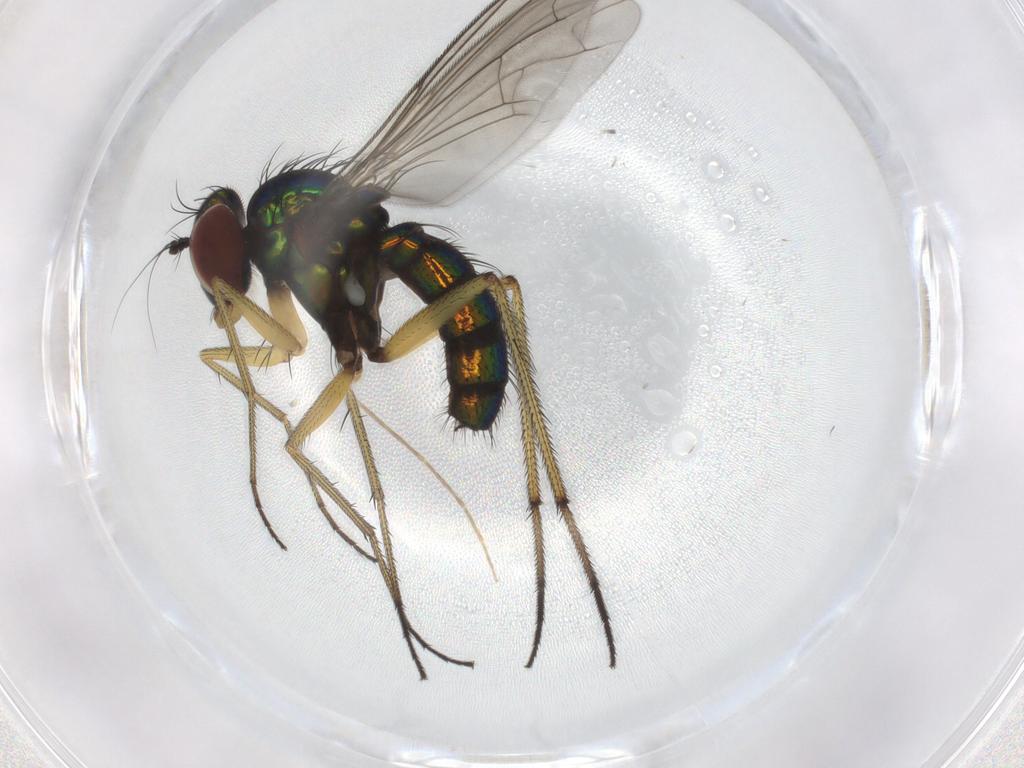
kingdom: Animalia
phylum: Arthropoda
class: Insecta
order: Diptera
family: Dolichopodidae
